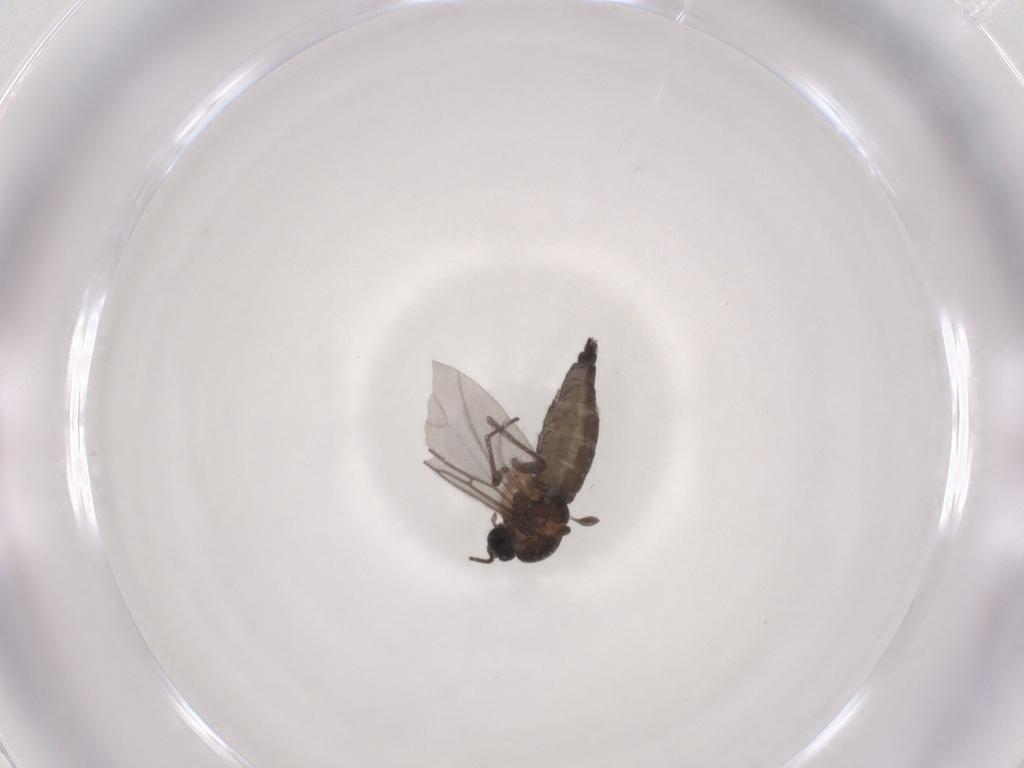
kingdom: Animalia
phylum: Arthropoda
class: Insecta
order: Diptera
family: Sciaridae
